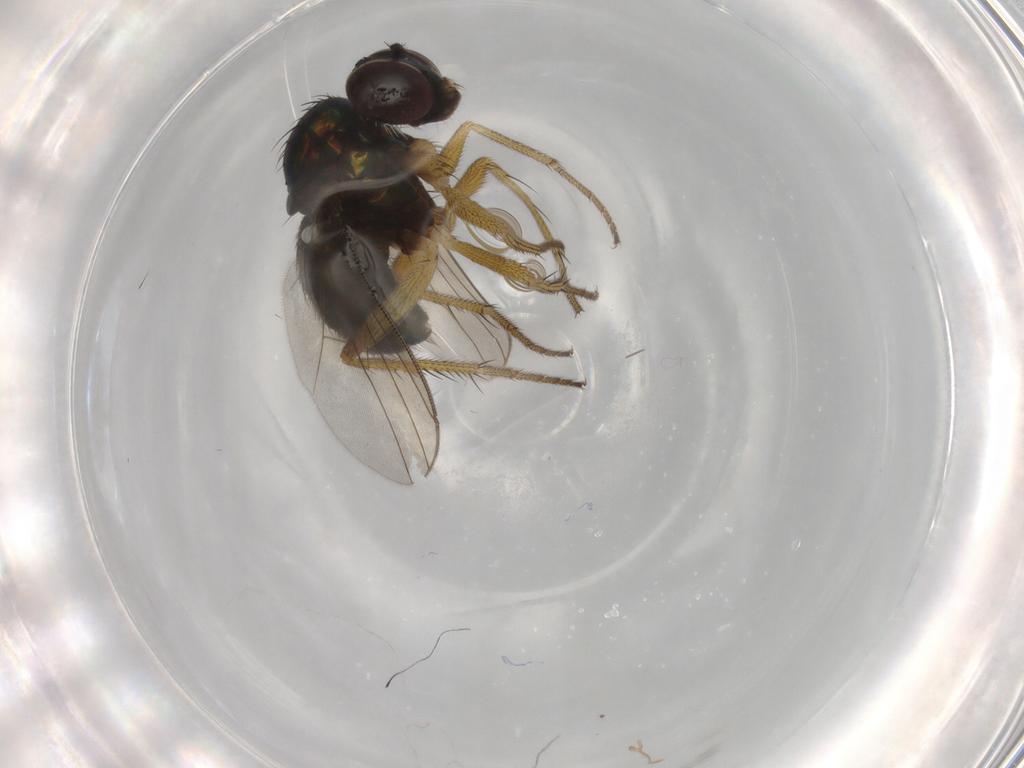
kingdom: Animalia
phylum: Arthropoda
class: Insecta
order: Diptera
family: Dolichopodidae
